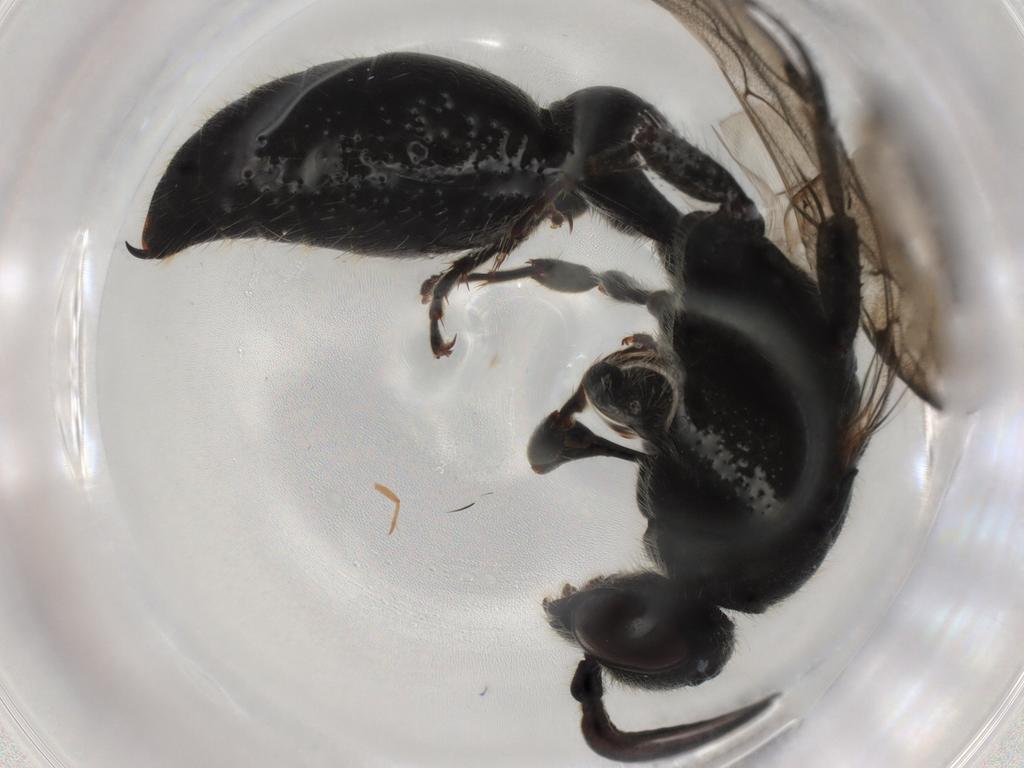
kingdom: Animalia
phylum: Arthropoda
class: Insecta
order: Hymenoptera
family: Tiphiidae
